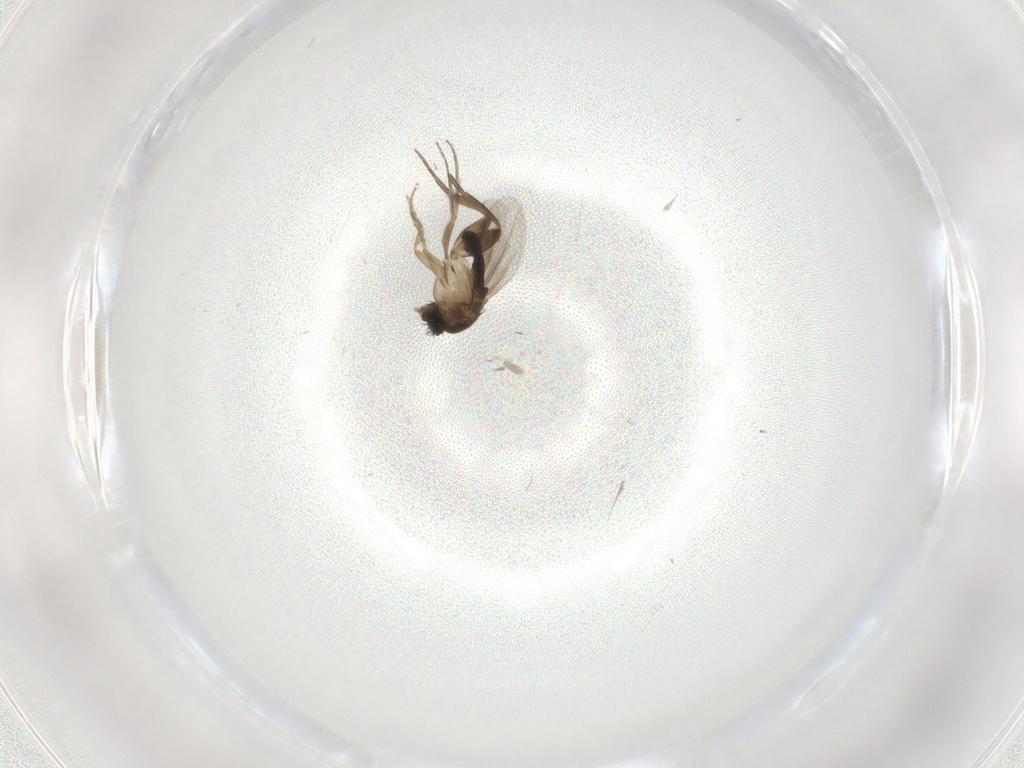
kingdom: Animalia
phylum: Arthropoda
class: Insecta
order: Diptera
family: Phoridae
